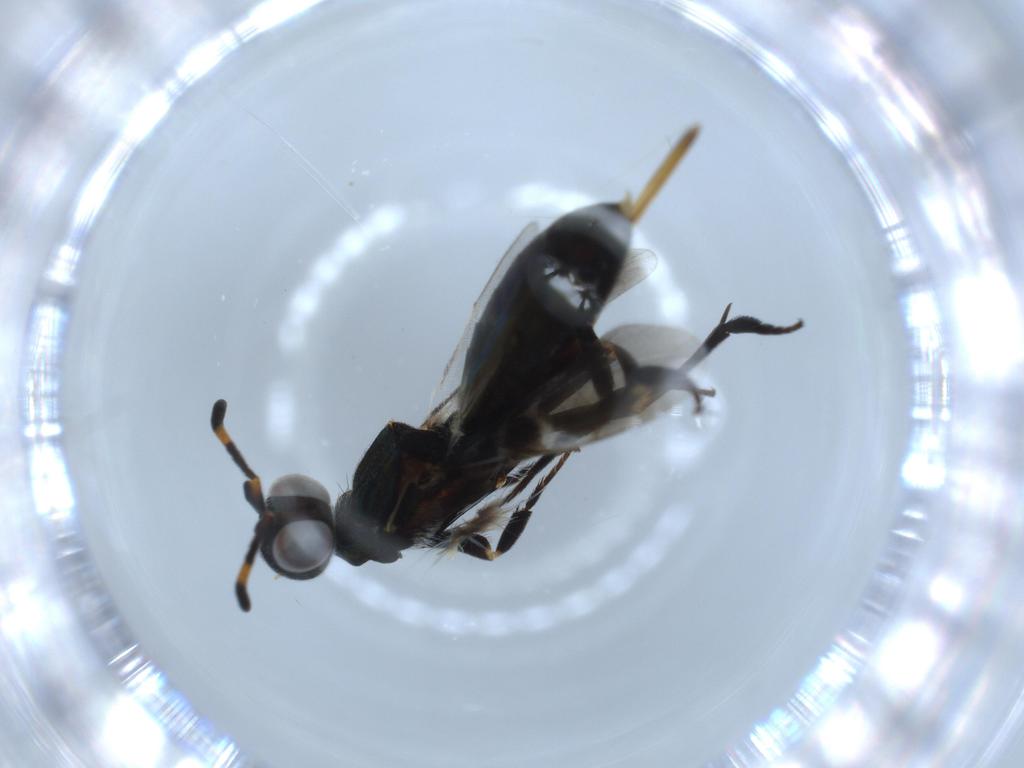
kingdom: Animalia
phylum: Arthropoda
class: Insecta
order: Hymenoptera
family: Eupelmidae
